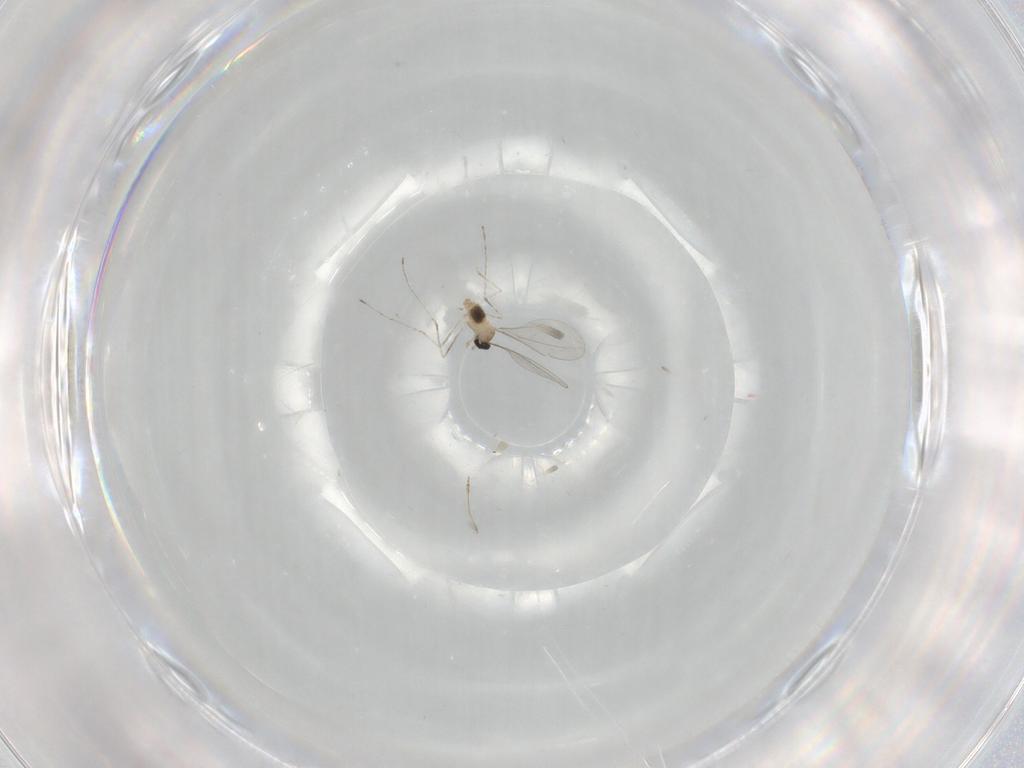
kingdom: Animalia
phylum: Arthropoda
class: Insecta
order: Diptera
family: Cecidomyiidae
